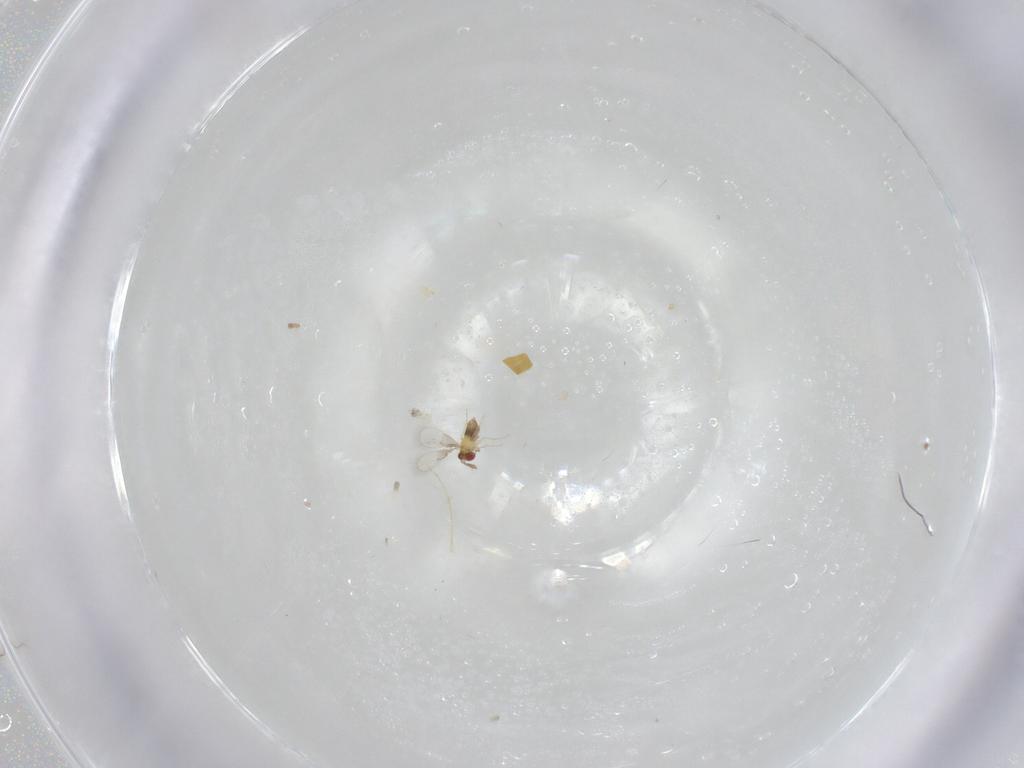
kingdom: Animalia
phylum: Arthropoda
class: Insecta
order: Hymenoptera
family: Trichogrammatidae
